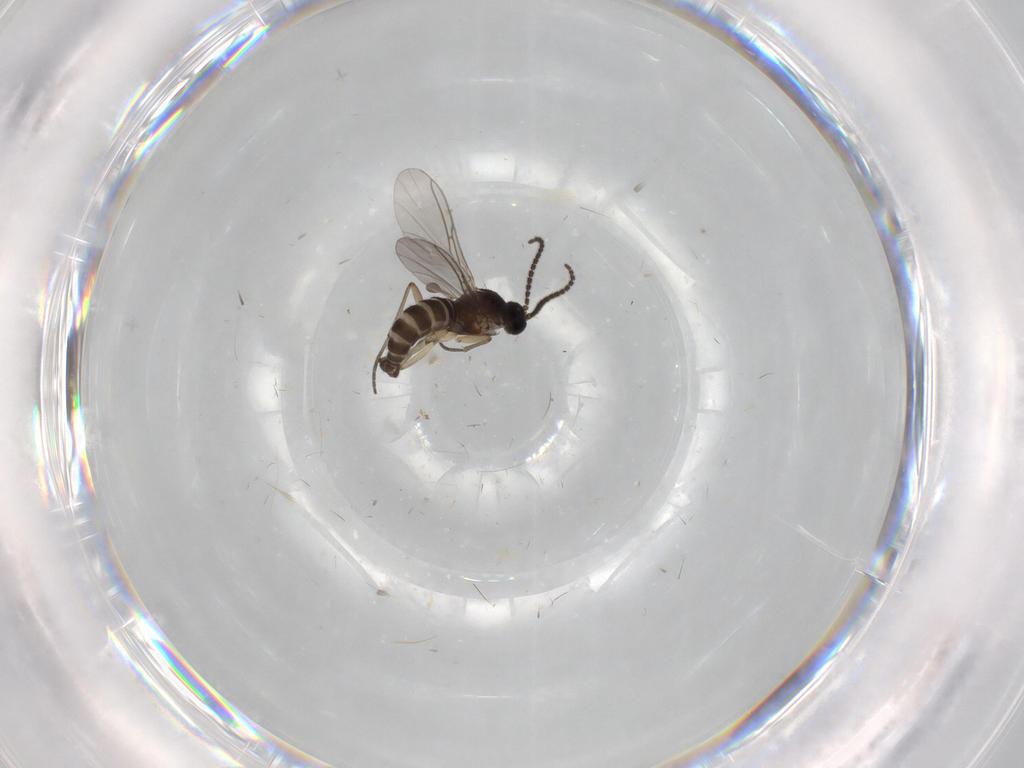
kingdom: Animalia
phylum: Arthropoda
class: Insecta
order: Diptera
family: Sciaridae
